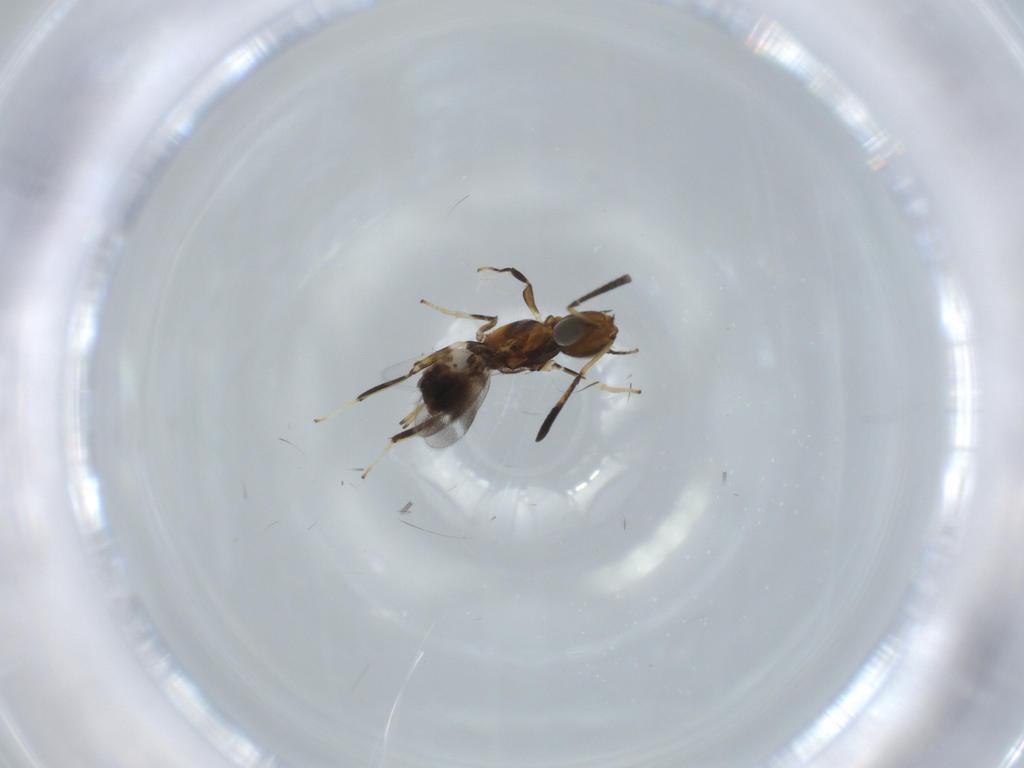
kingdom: Animalia
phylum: Arthropoda
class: Insecta
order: Hymenoptera
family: Eupelmidae
